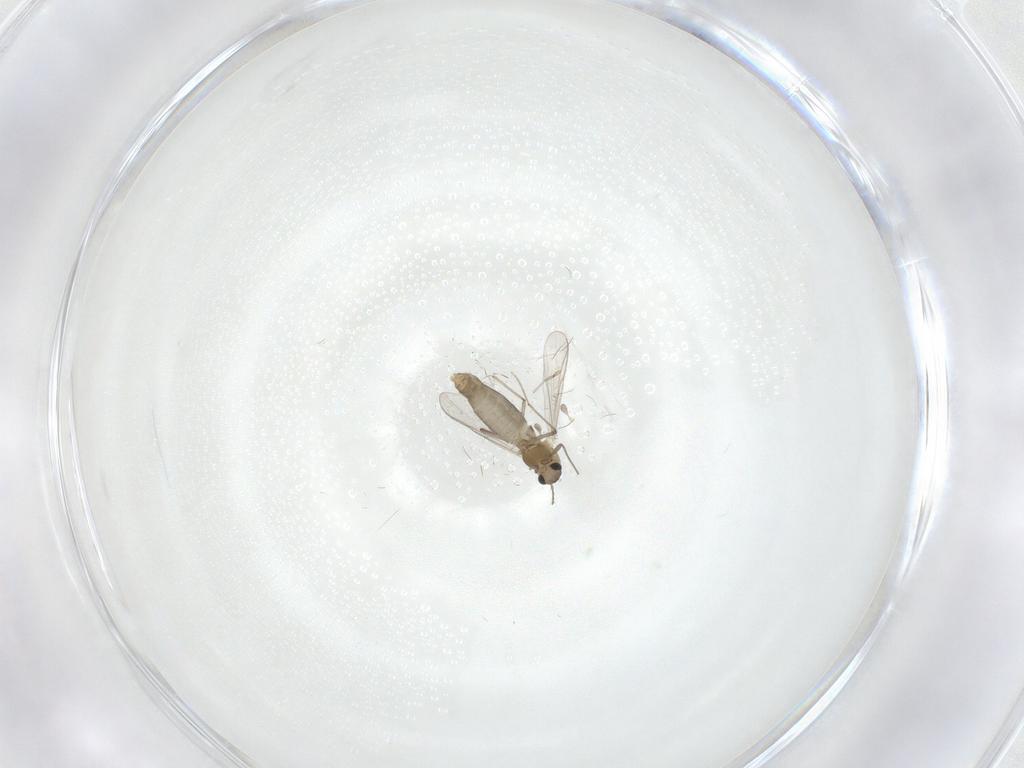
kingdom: Animalia
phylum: Arthropoda
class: Insecta
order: Diptera
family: Chironomidae
